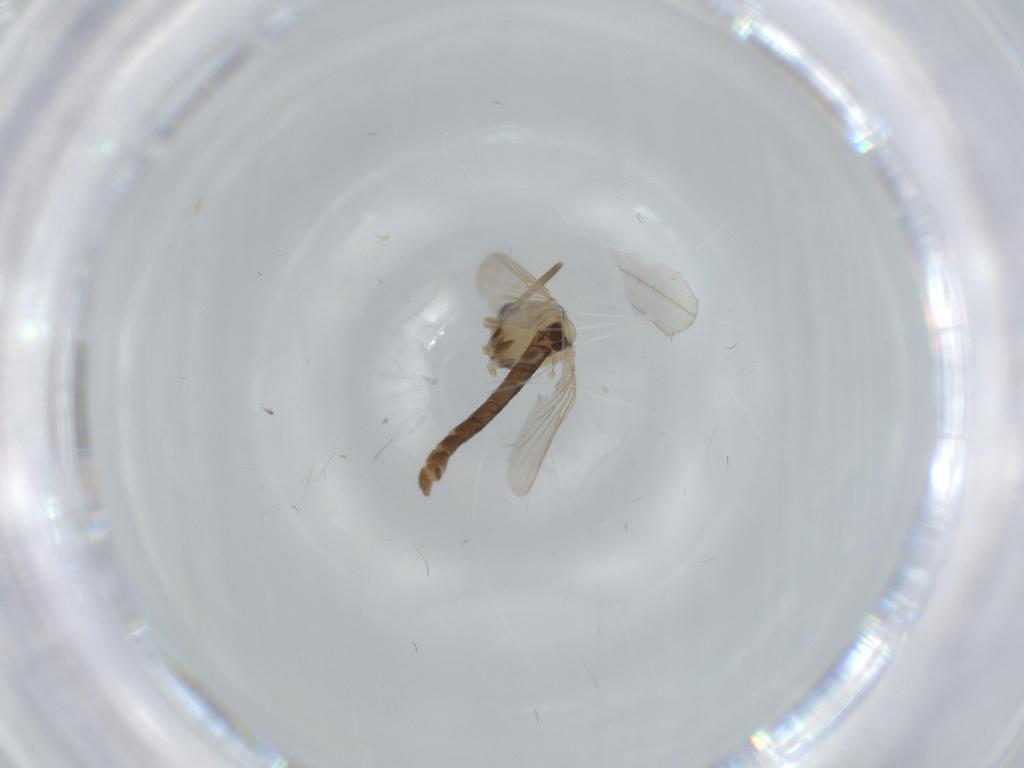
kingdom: Animalia
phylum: Arthropoda
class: Insecta
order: Diptera
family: Chironomidae
